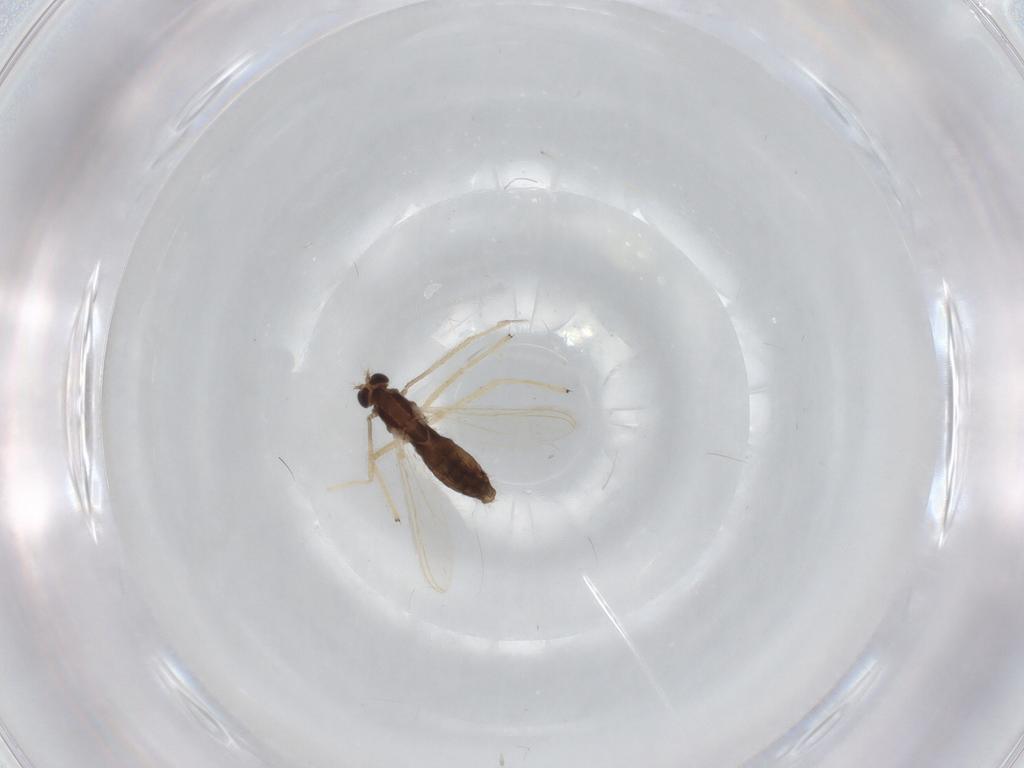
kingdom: Animalia
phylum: Arthropoda
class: Insecta
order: Diptera
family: Chironomidae
